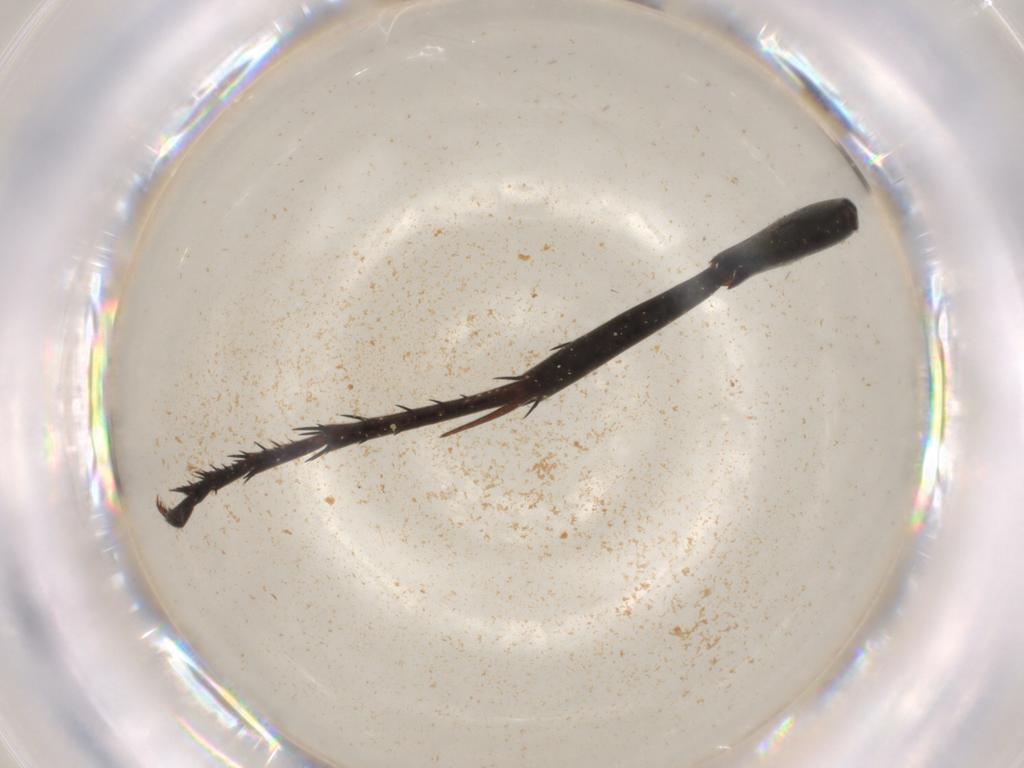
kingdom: Animalia
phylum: Arthropoda
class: Insecta
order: Hymenoptera
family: Pompilidae
